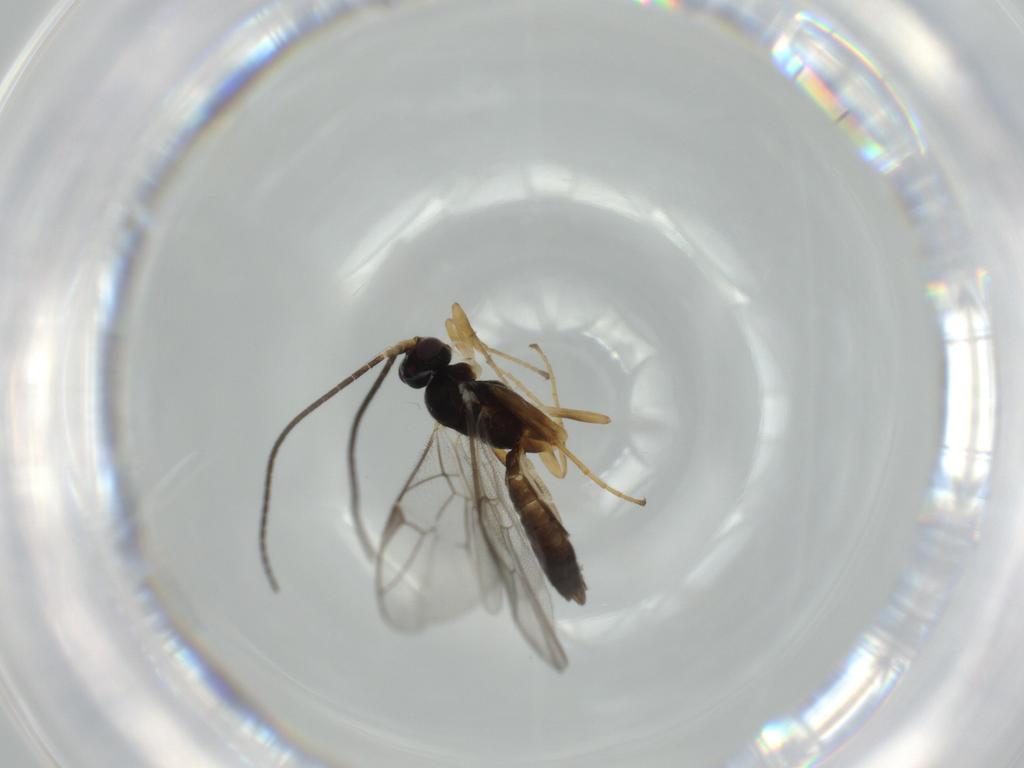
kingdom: Animalia
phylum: Arthropoda
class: Insecta
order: Hymenoptera
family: Ichneumonidae
